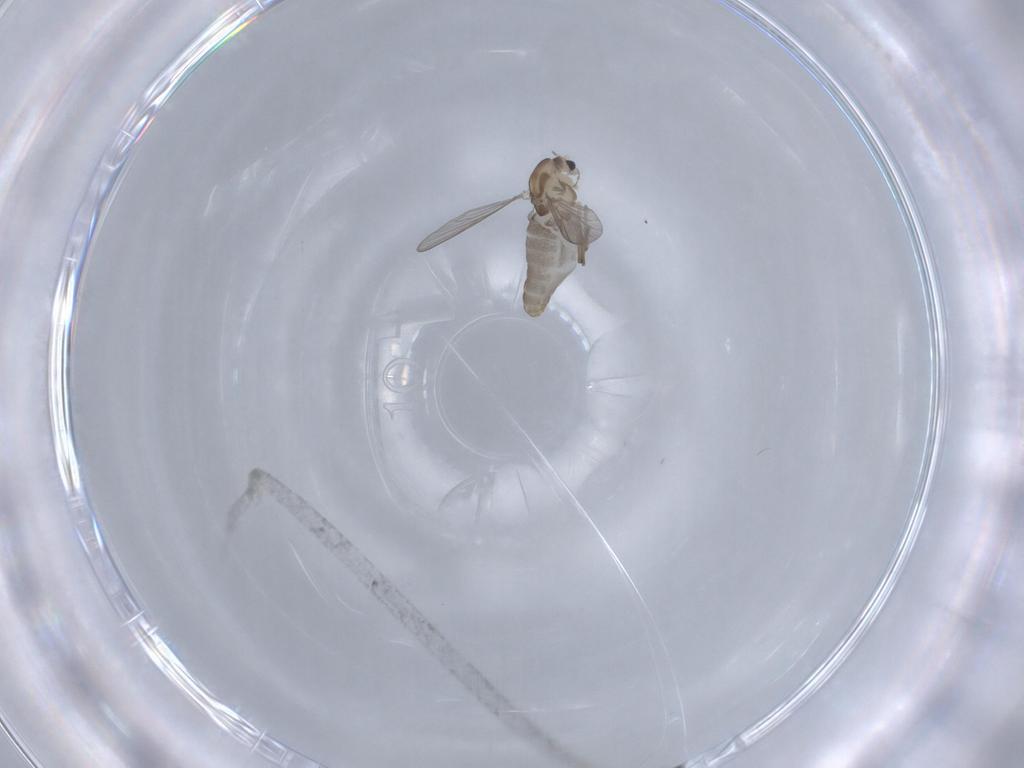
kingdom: Animalia
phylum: Arthropoda
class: Insecta
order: Diptera
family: Chironomidae
